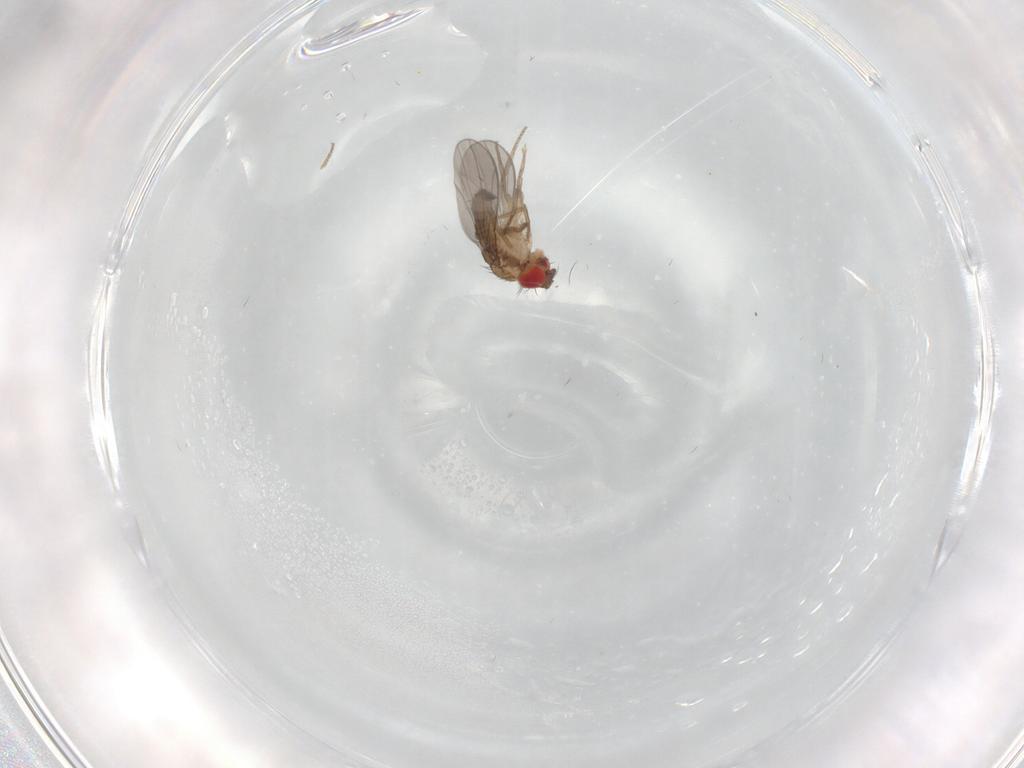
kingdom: Animalia
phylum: Arthropoda
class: Insecta
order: Diptera
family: Drosophilidae
